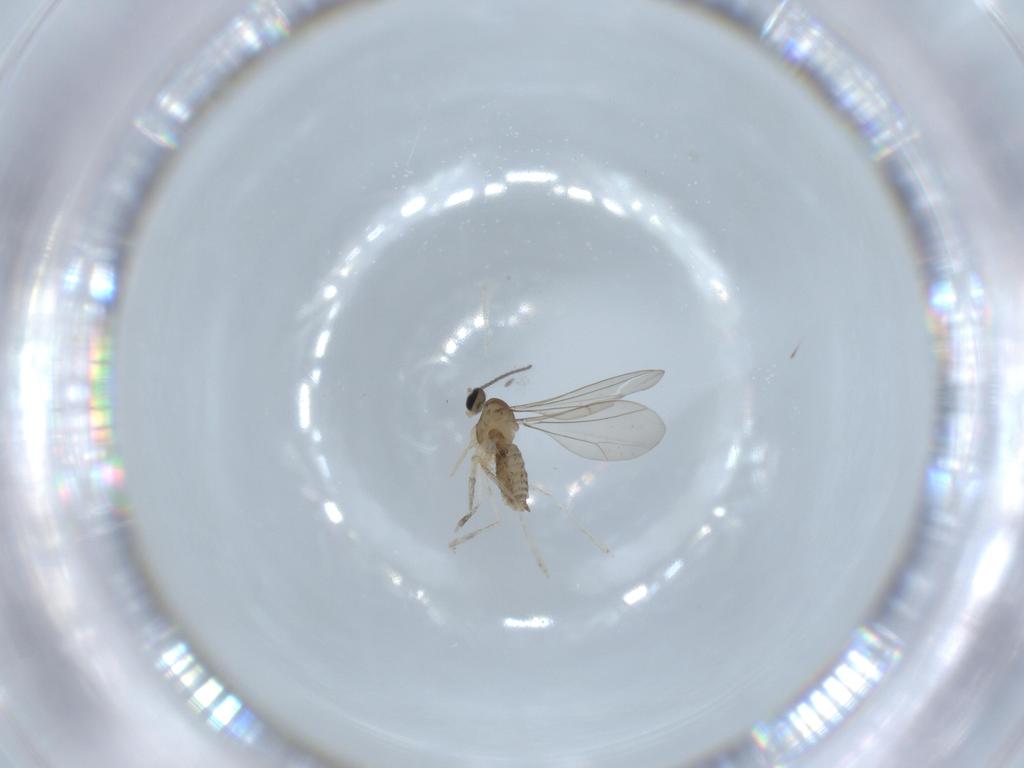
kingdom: Animalia
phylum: Arthropoda
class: Insecta
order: Diptera
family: Cecidomyiidae
